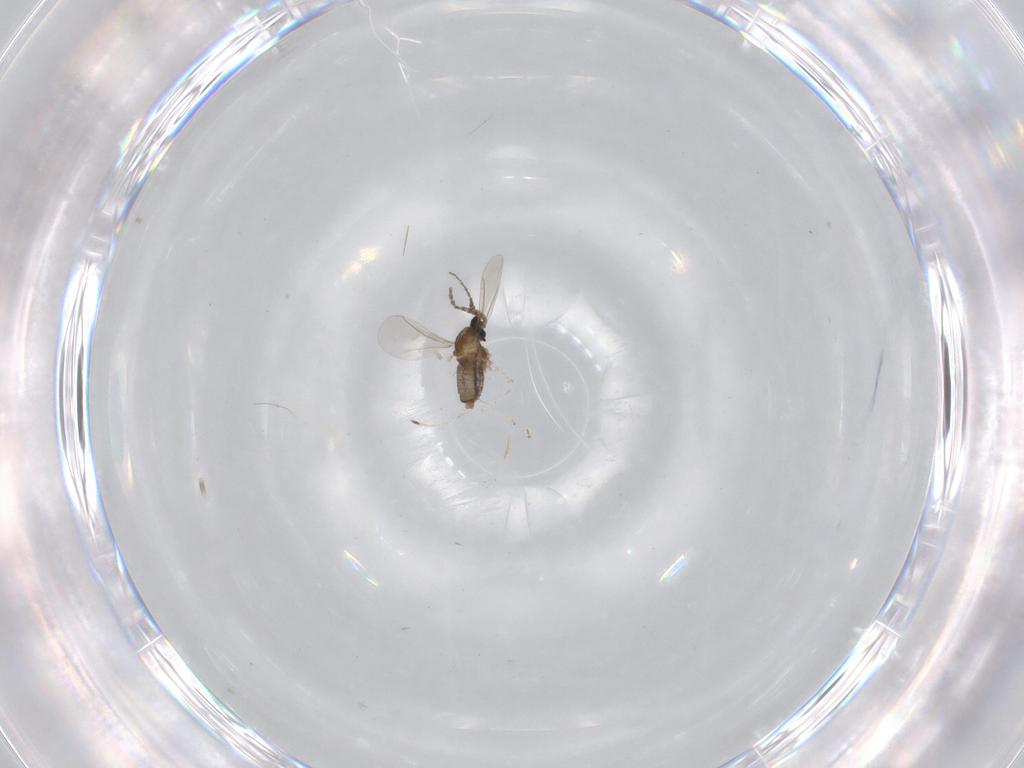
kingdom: Animalia
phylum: Arthropoda
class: Insecta
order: Diptera
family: Cecidomyiidae
